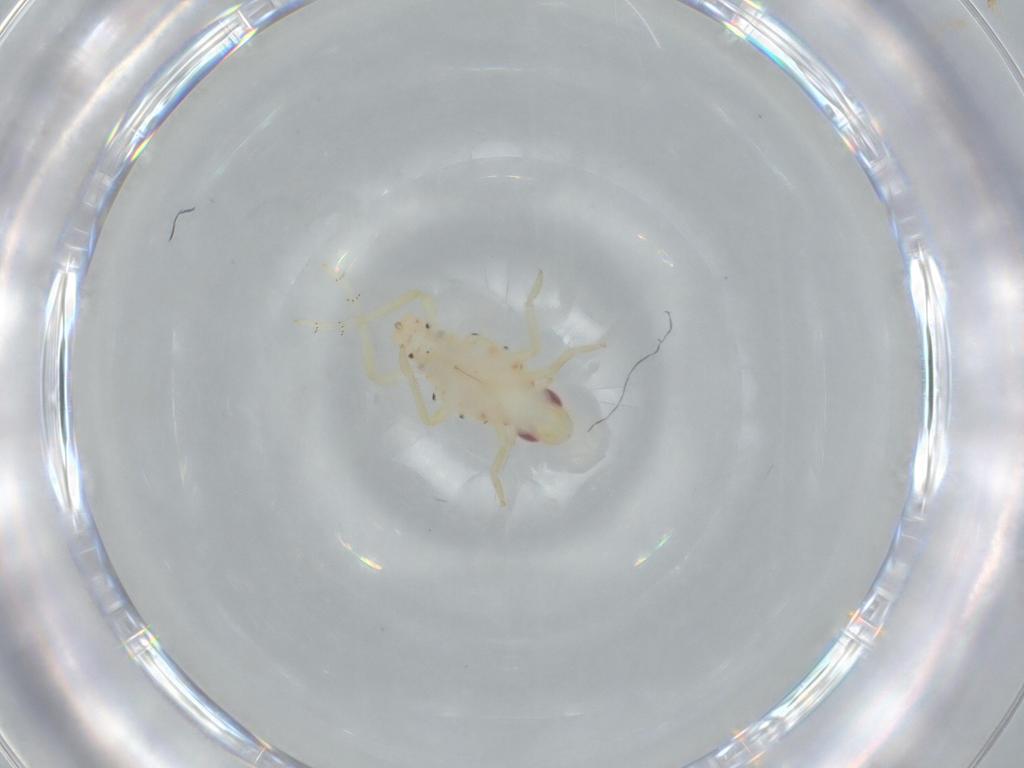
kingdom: Animalia
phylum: Arthropoda
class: Insecta
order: Hemiptera
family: Tropiduchidae
